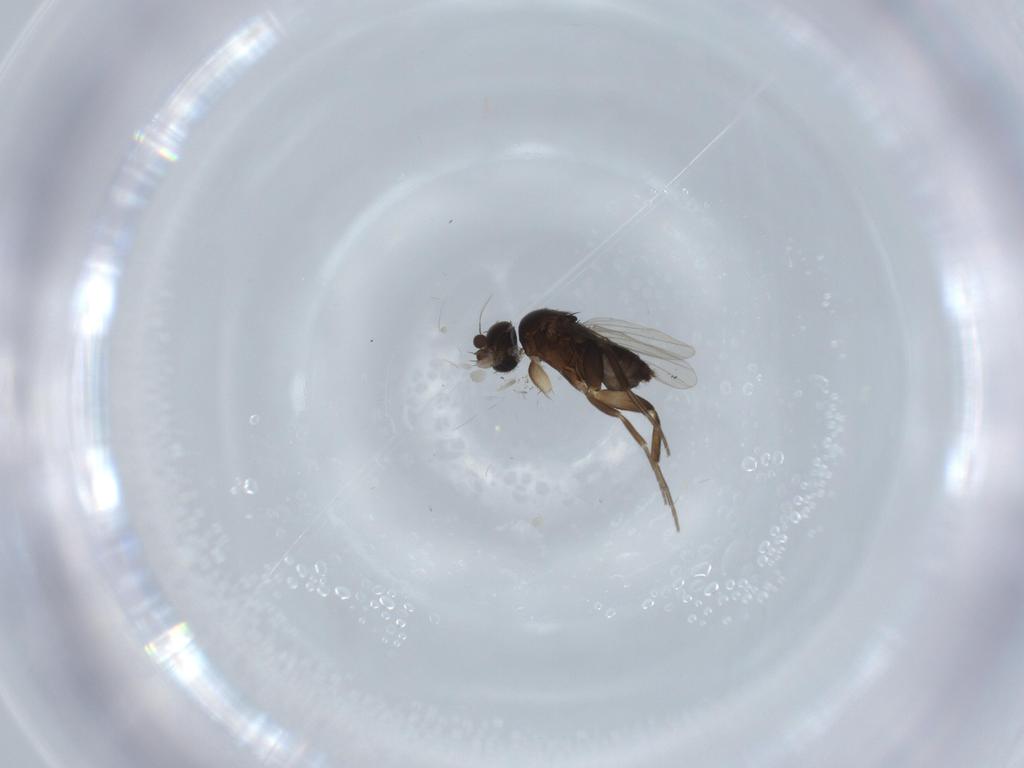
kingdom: Animalia
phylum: Arthropoda
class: Insecta
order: Diptera
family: Phoridae
